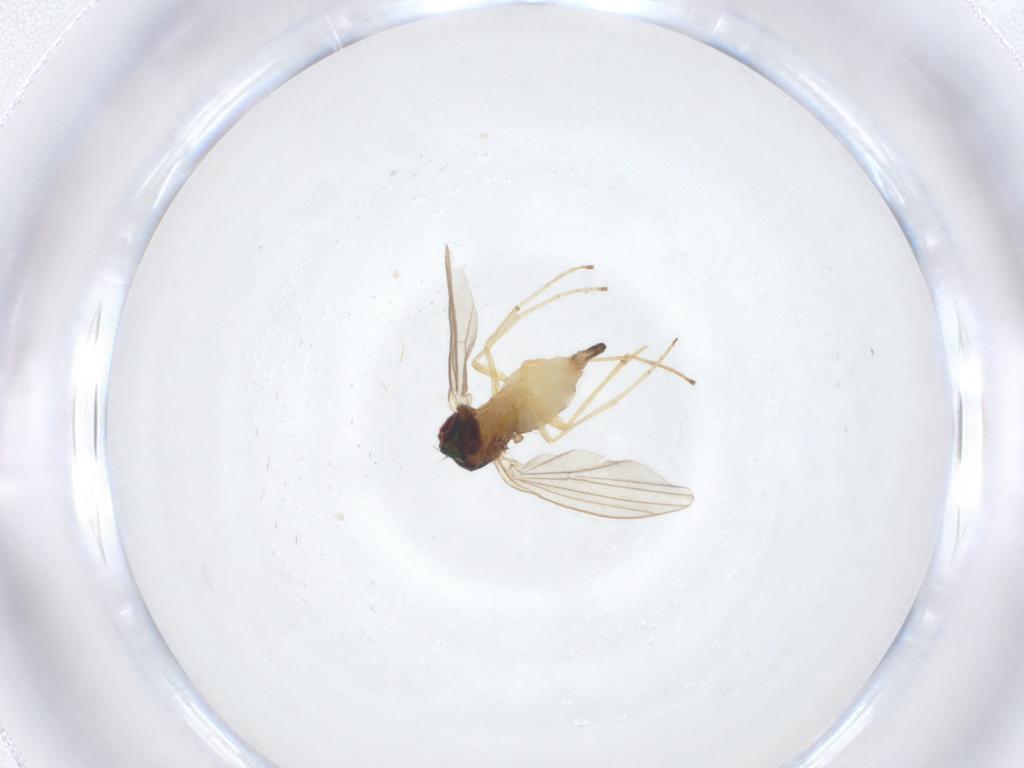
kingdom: Animalia
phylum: Arthropoda
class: Insecta
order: Diptera
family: Dolichopodidae
